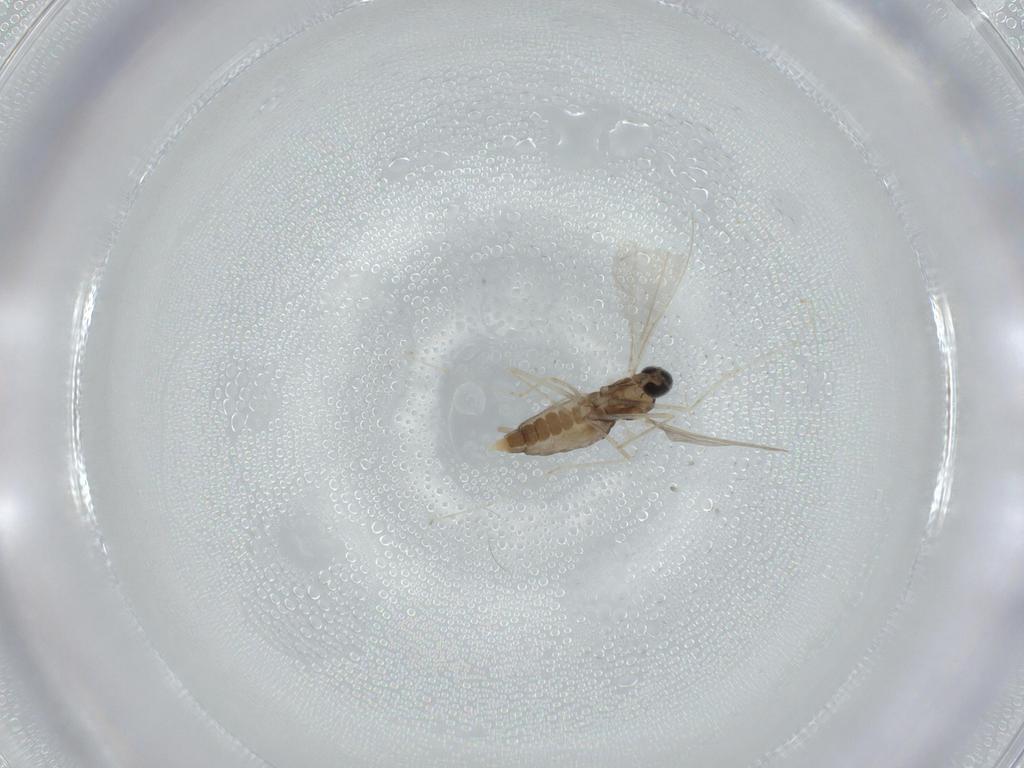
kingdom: Animalia
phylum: Arthropoda
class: Insecta
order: Diptera
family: Cecidomyiidae
